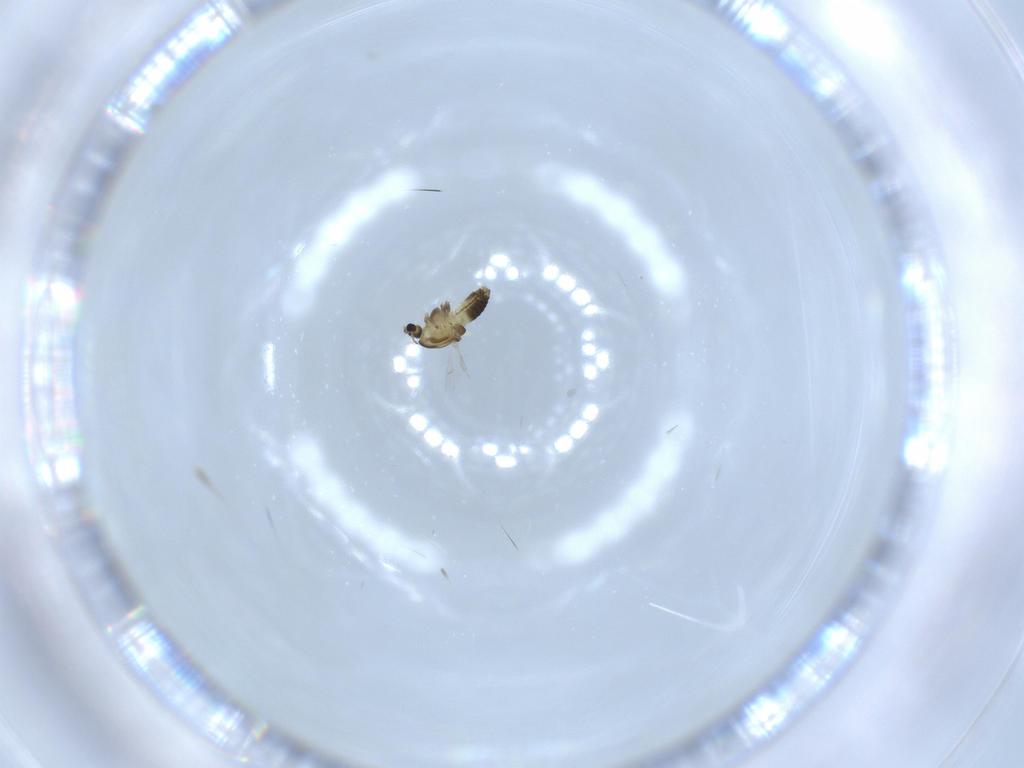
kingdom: Animalia
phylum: Arthropoda
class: Insecta
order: Diptera
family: Chironomidae
